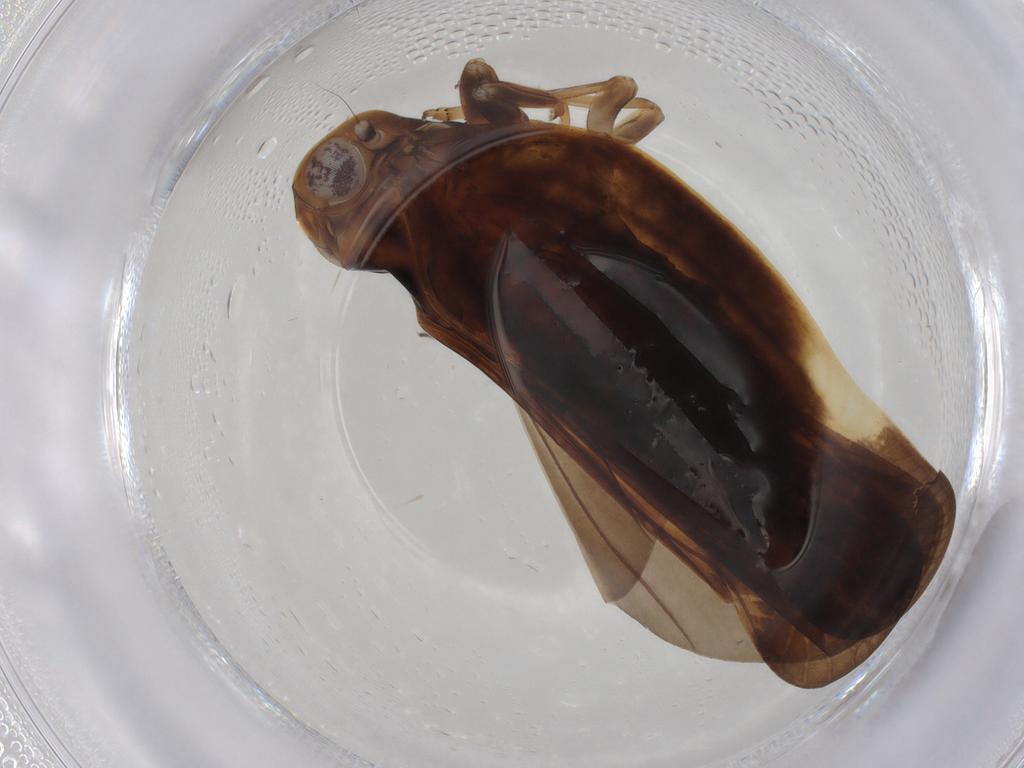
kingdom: Animalia
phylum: Arthropoda
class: Insecta
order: Hemiptera
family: Nogodinidae
